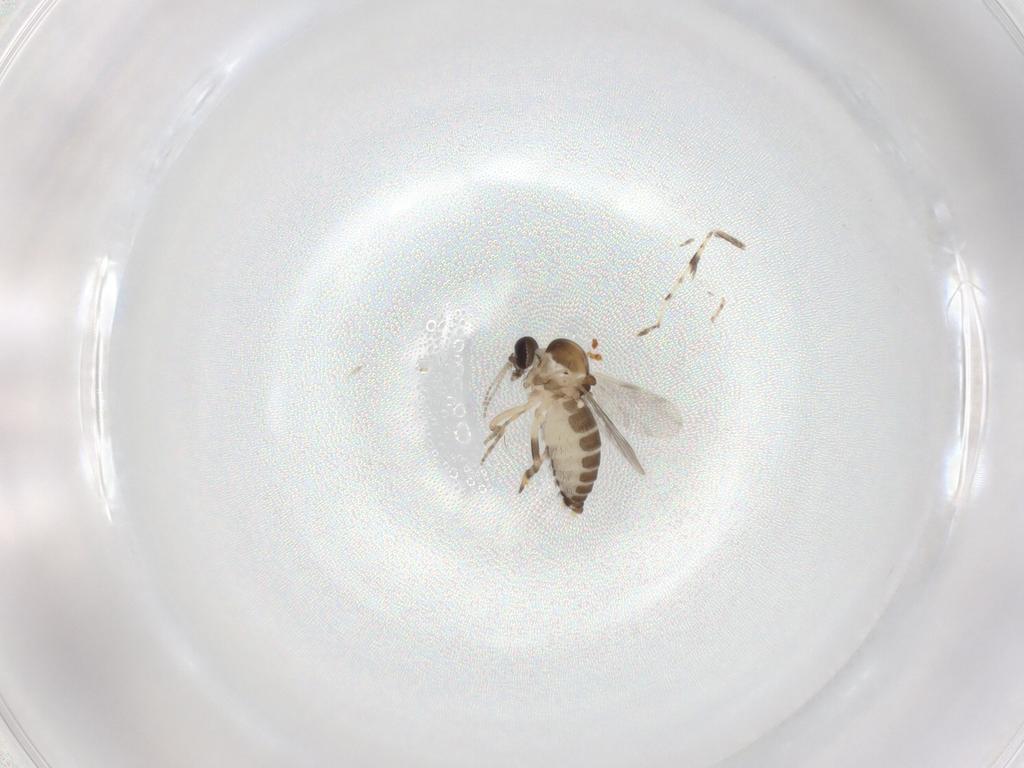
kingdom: Animalia
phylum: Arthropoda
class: Insecta
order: Diptera
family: Ceratopogonidae
